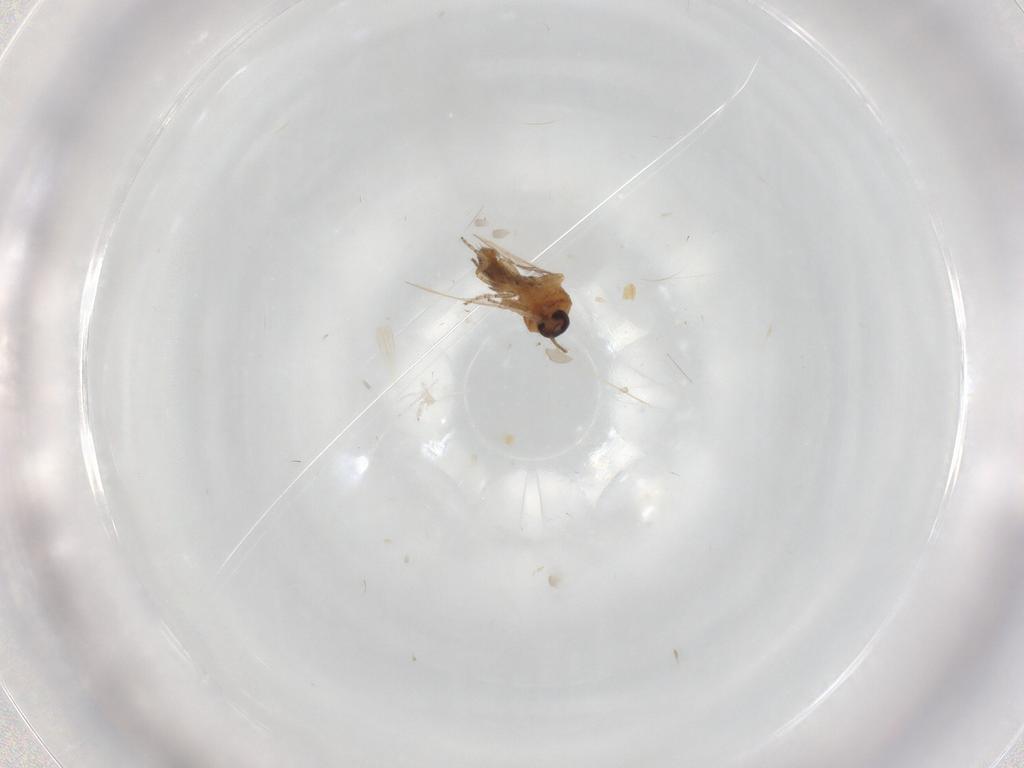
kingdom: Animalia
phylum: Arthropoda
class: Insecta
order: Diptera
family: Ceratopogonidae
